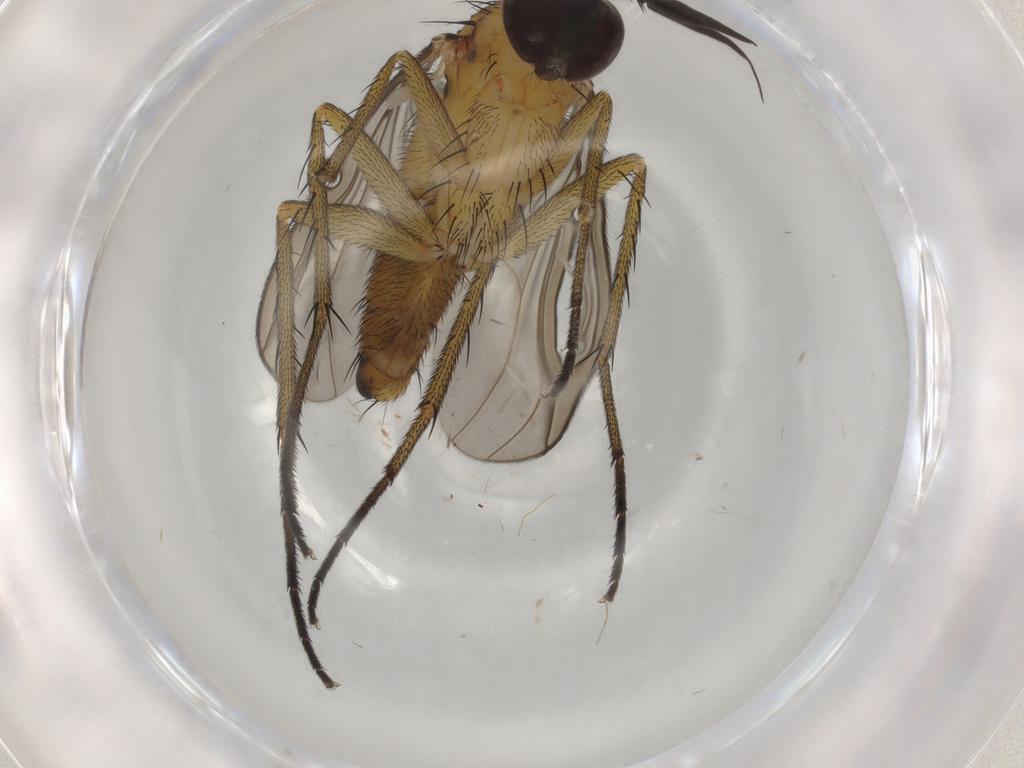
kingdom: Animalia
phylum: Arthropoda
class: Insecta
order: Diptera
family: Dolichopodidae
